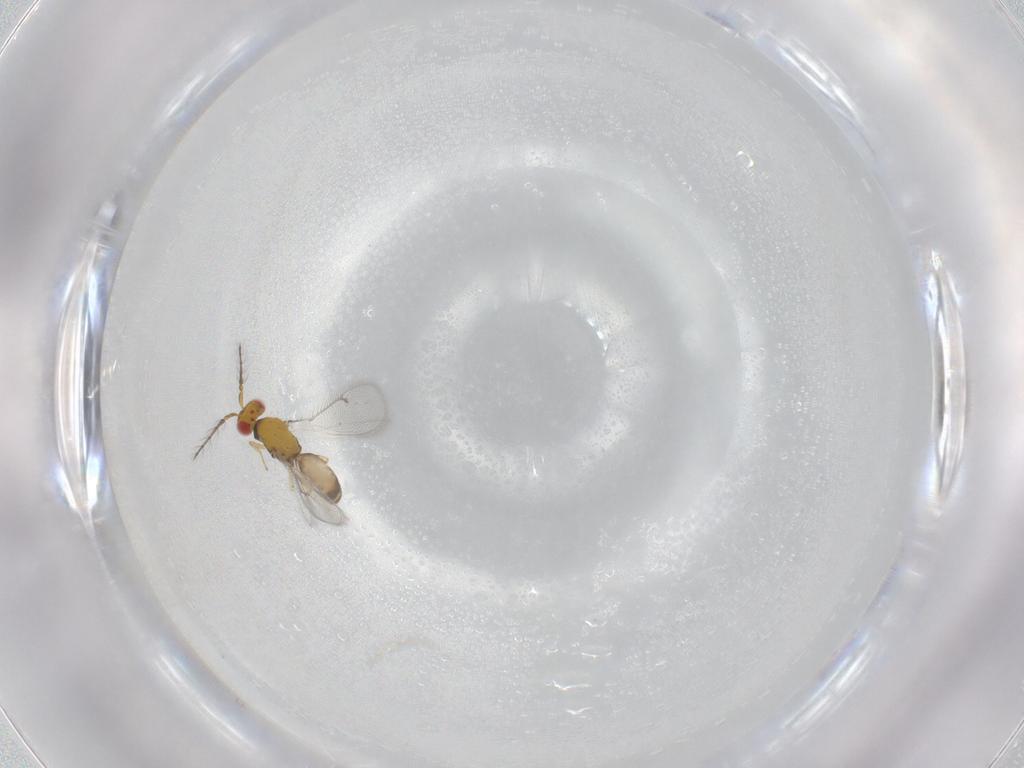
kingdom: Animalia
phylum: Arthropoda
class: Insecta
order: Hymenoptera
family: Eulophidae
